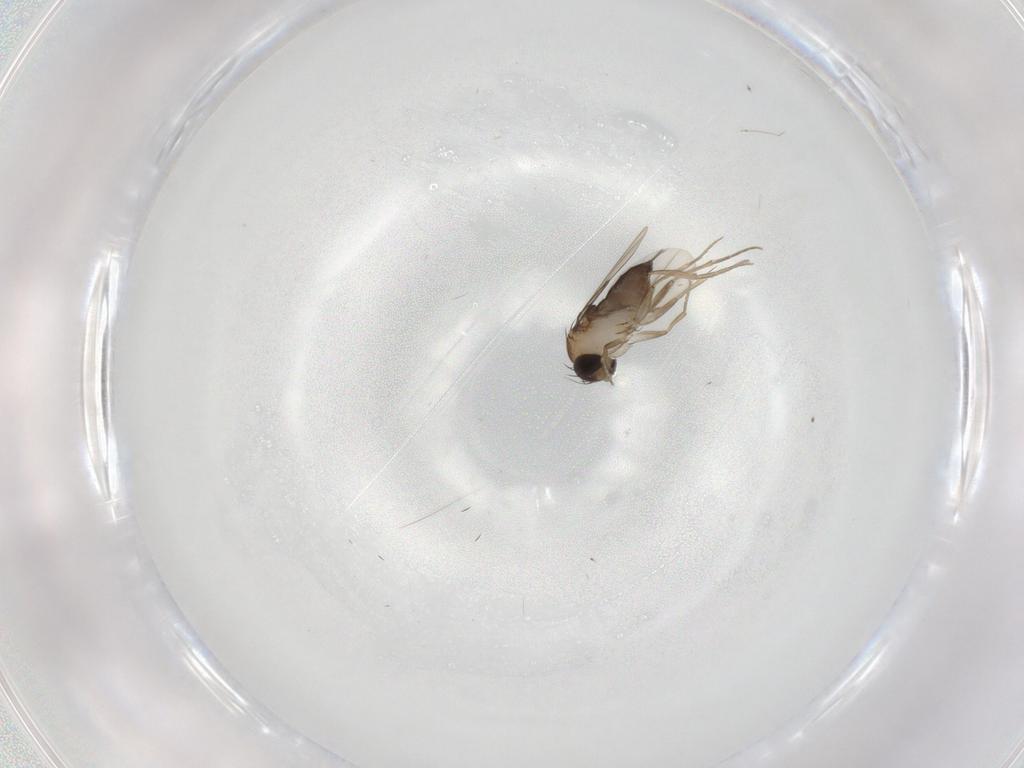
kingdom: Animalia
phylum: Arthropoda
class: Insecta
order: Diptera
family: Phoridae
